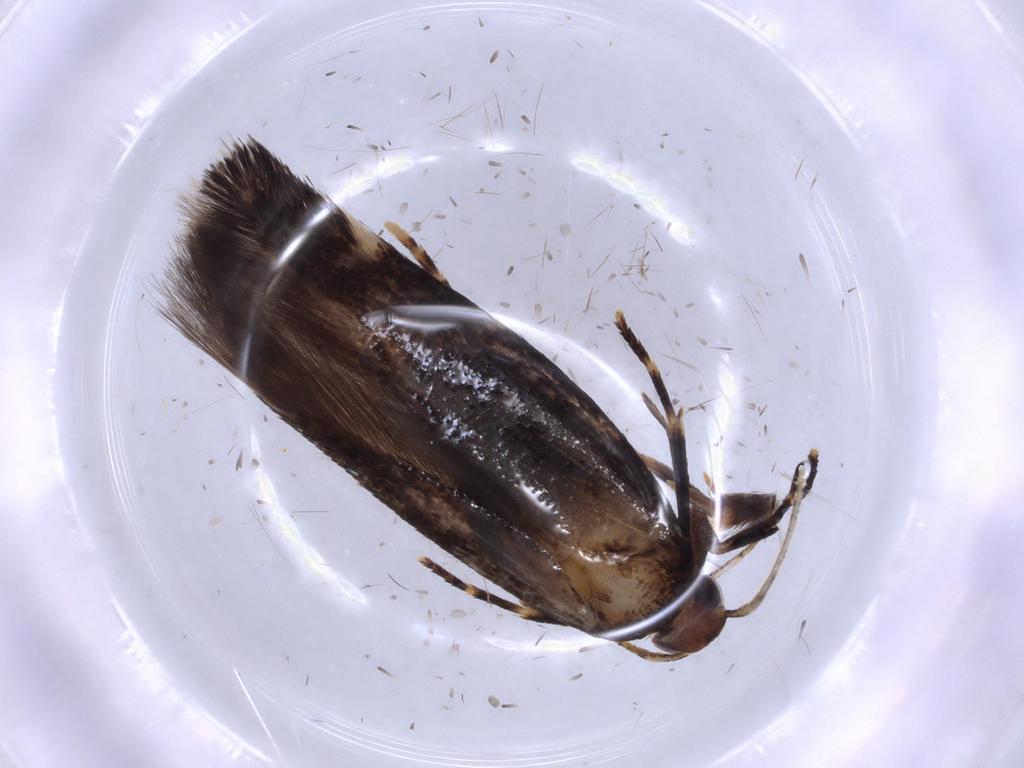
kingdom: Animalia
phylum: Arthropoda
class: Insecta
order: Lepidoptera
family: Cosmopterigidae
